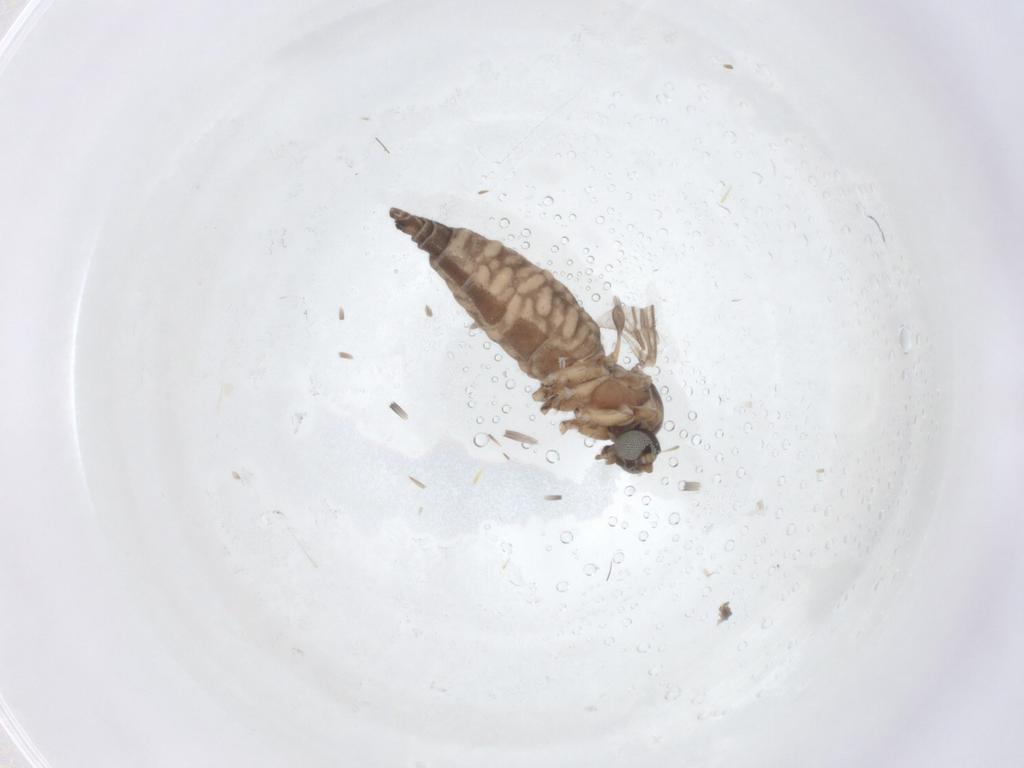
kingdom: Animalia
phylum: Arthropoda
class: Insecta
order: Diptera
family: Sciaridae
